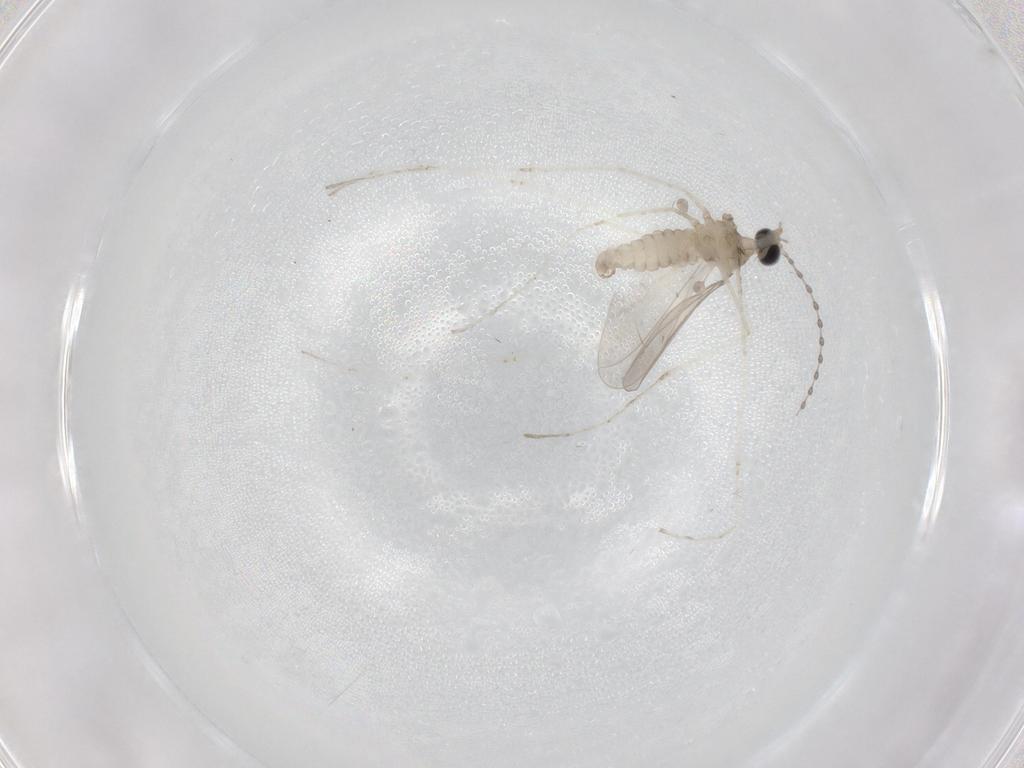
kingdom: Animalia
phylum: Arthropoda
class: Insecta
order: Diptera
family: Cecidomyiidae
